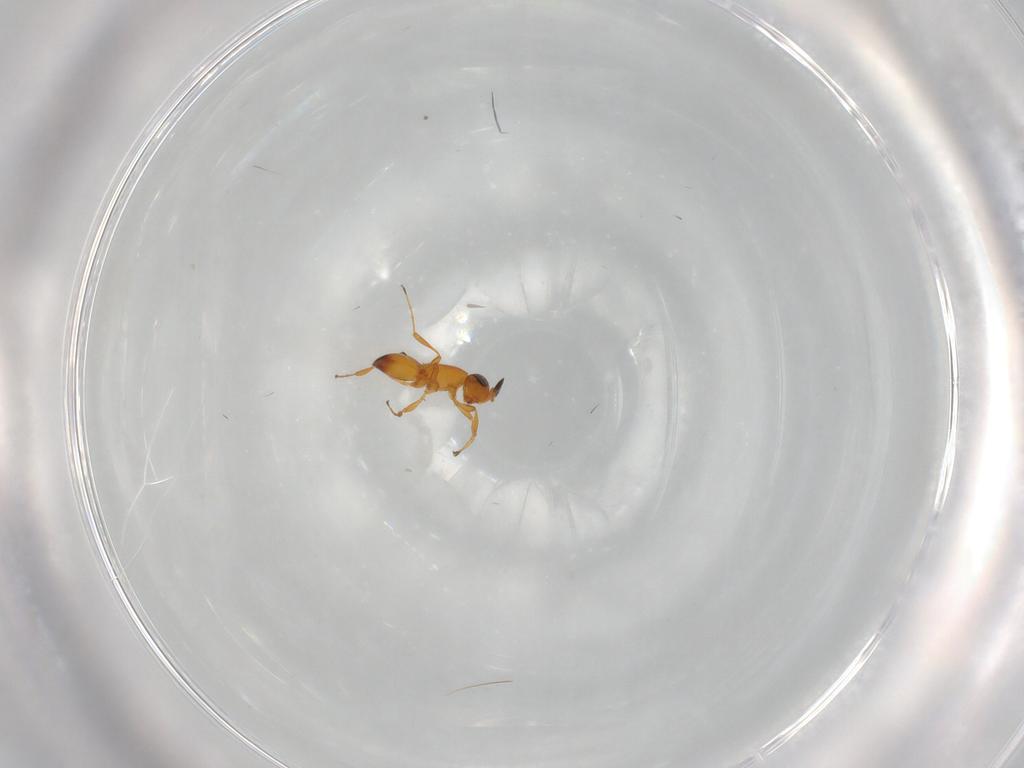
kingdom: Animalia
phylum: Arthropoda
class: Insecta
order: Hymenoptera
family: Platygastridae
